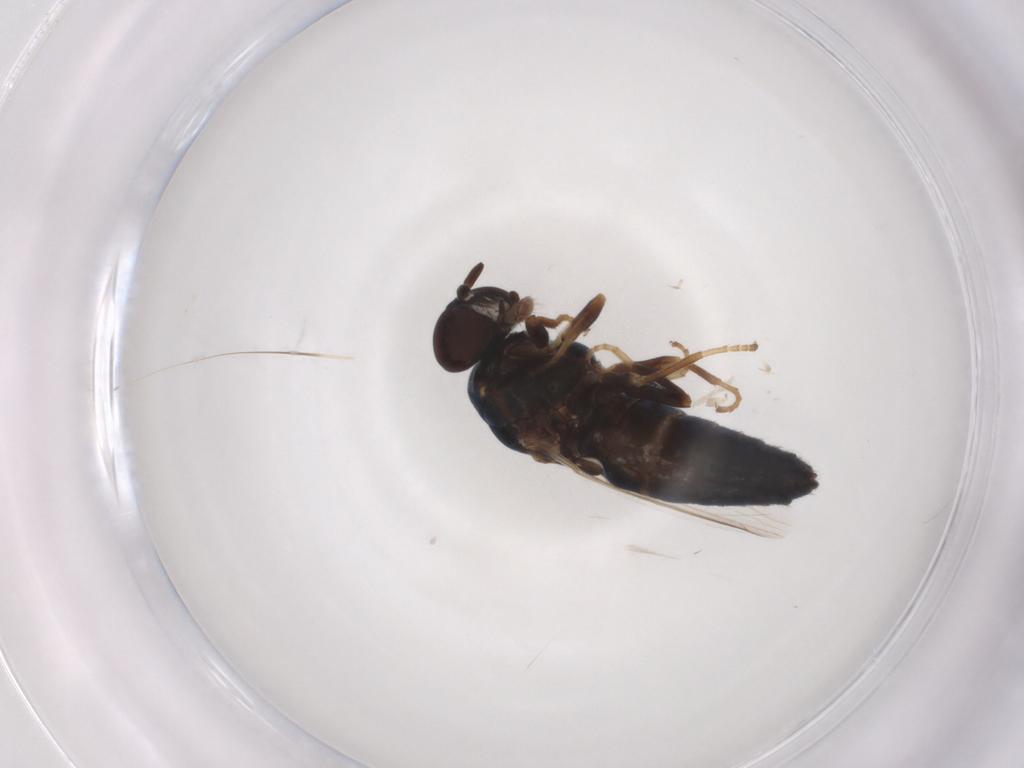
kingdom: Animalia
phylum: Arthropoda
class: Insecta
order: Diptera
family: Scenopinidae
